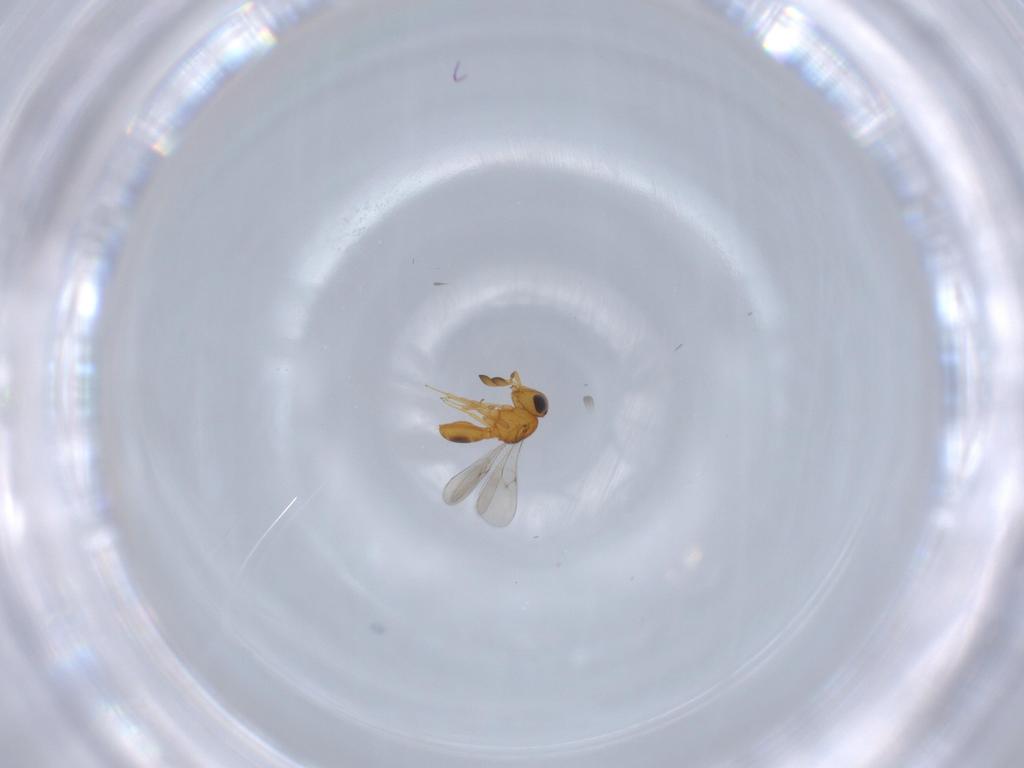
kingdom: Animalia
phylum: Arthropoda
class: Insecta
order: Hymenoptera
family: Scelionidae
